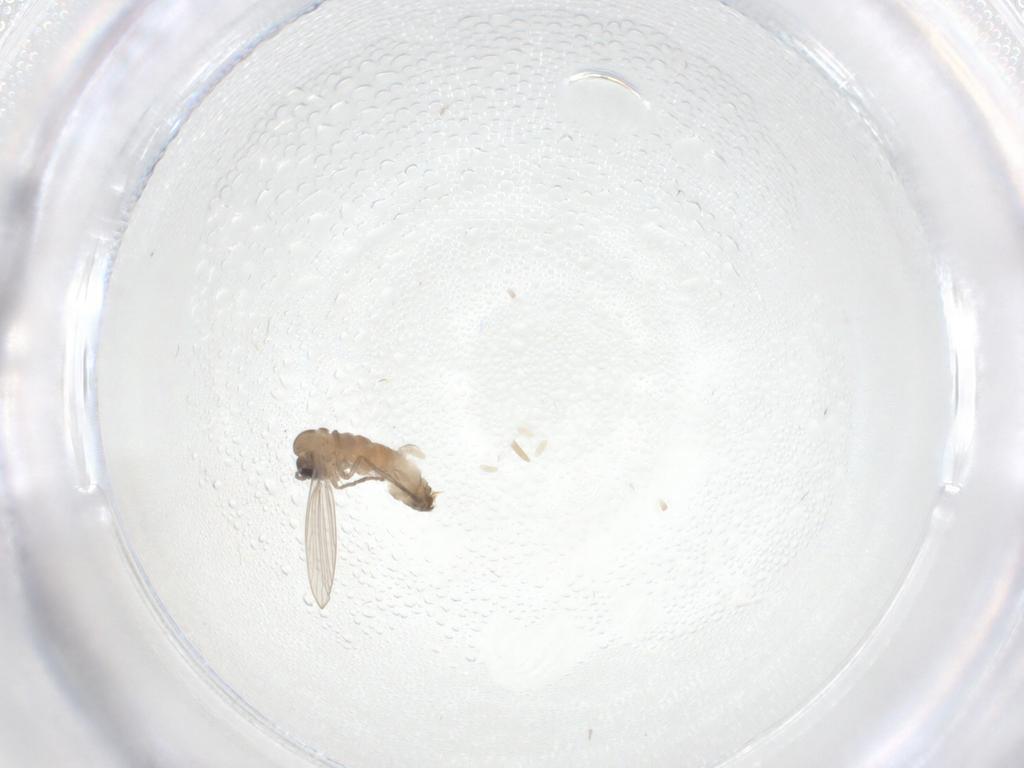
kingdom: Animalia
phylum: Arthropoda
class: Insecta
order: Diptera
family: Psychodidae
